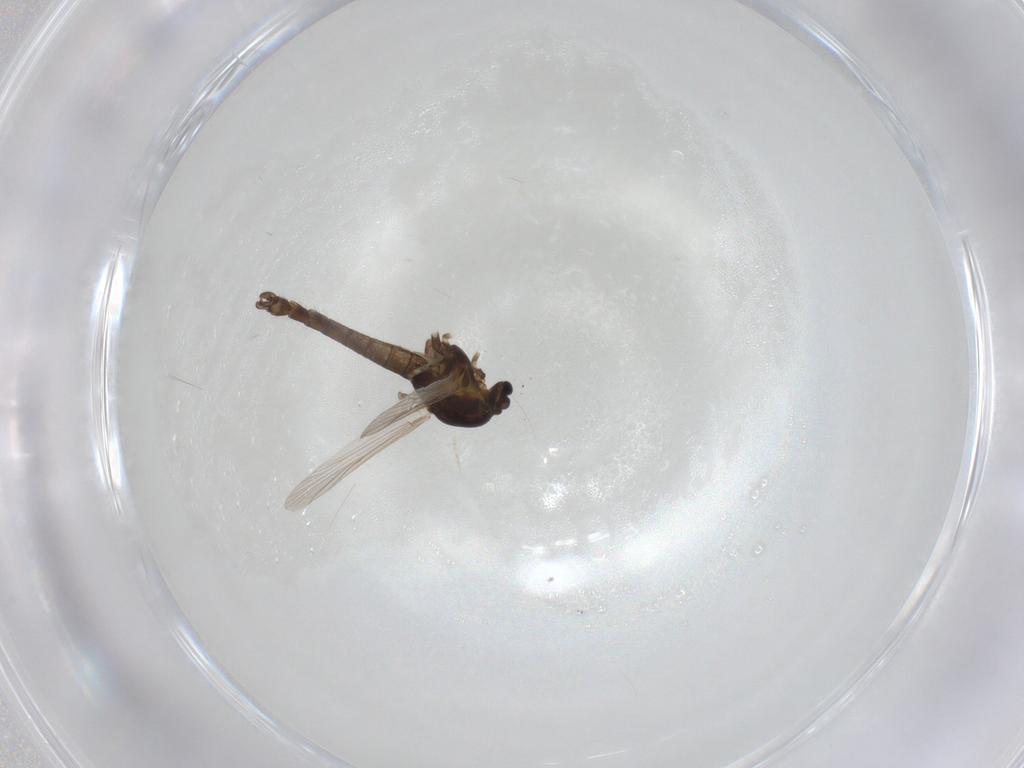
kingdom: Animalia
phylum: Arthropoda
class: Insecta
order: Diptera
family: Chironomidae
